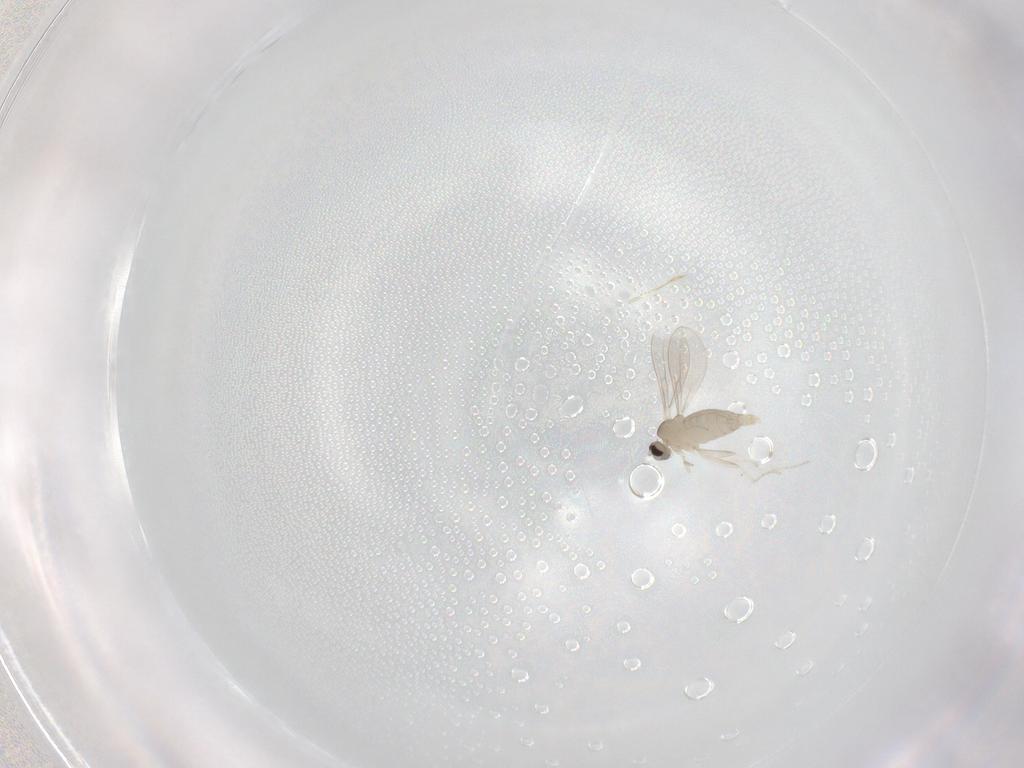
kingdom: Animalia
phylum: Arthropoda
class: Insecta
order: Diptera
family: Cecidomyiidae
